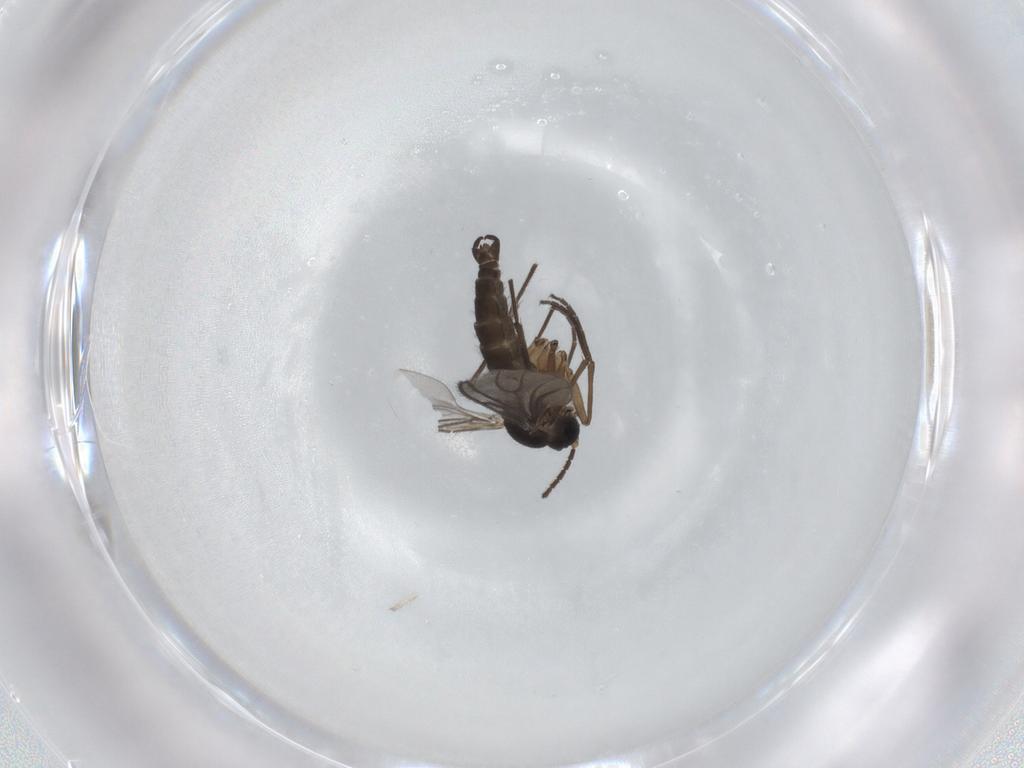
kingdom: Animalia
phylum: Arthropoda
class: Insecta
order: Diptera
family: Sciaridae
